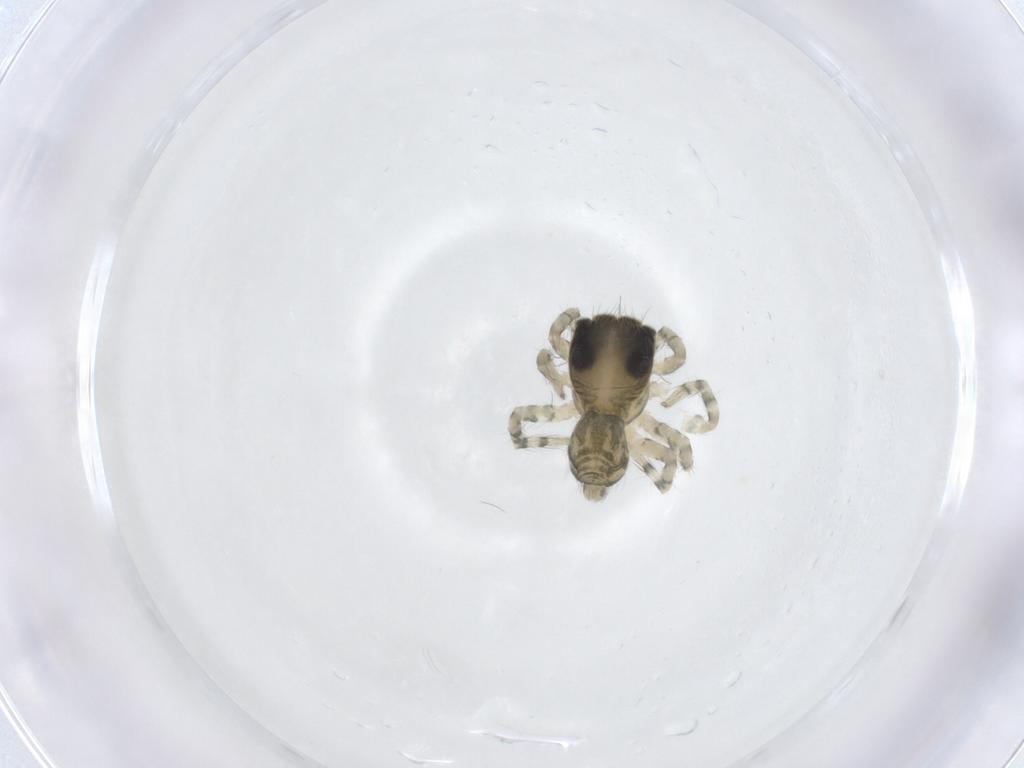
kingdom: Animalia
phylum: Arthropoda
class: Arachnida
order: Araneae
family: Salticidae
